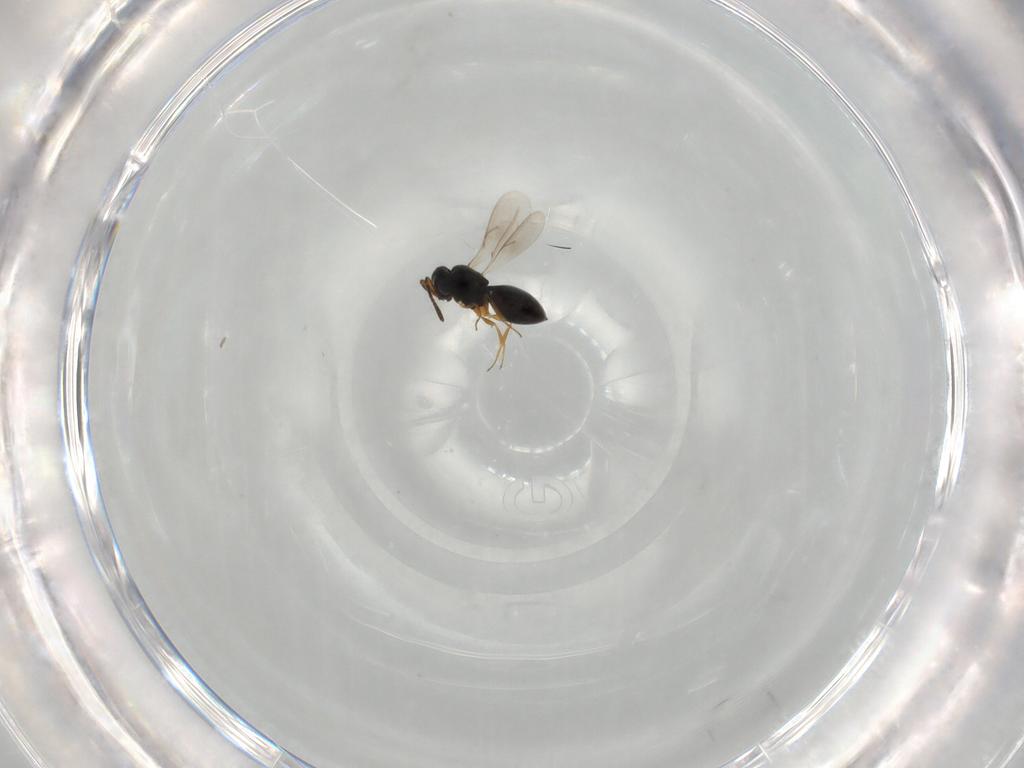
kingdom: Animalia
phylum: Arthropoda
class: Insecta
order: Hymenoptera
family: Scelionidae
